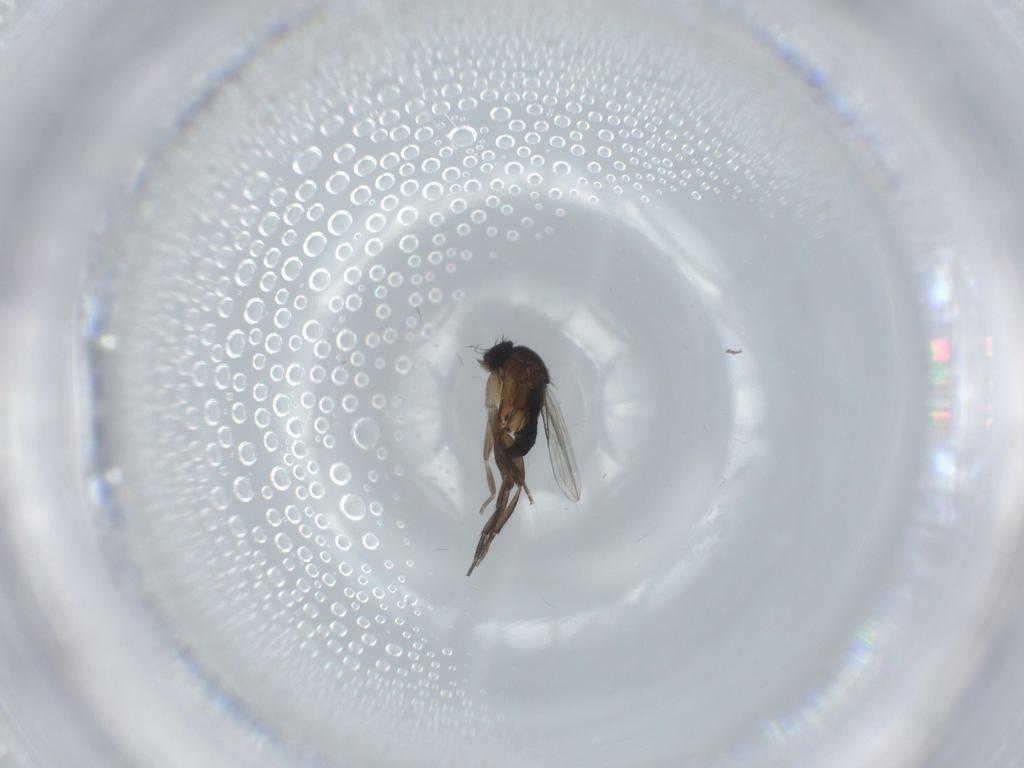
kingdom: Animalia
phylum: Arthropoda
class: Insecta
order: Diptera
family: Phoridae
